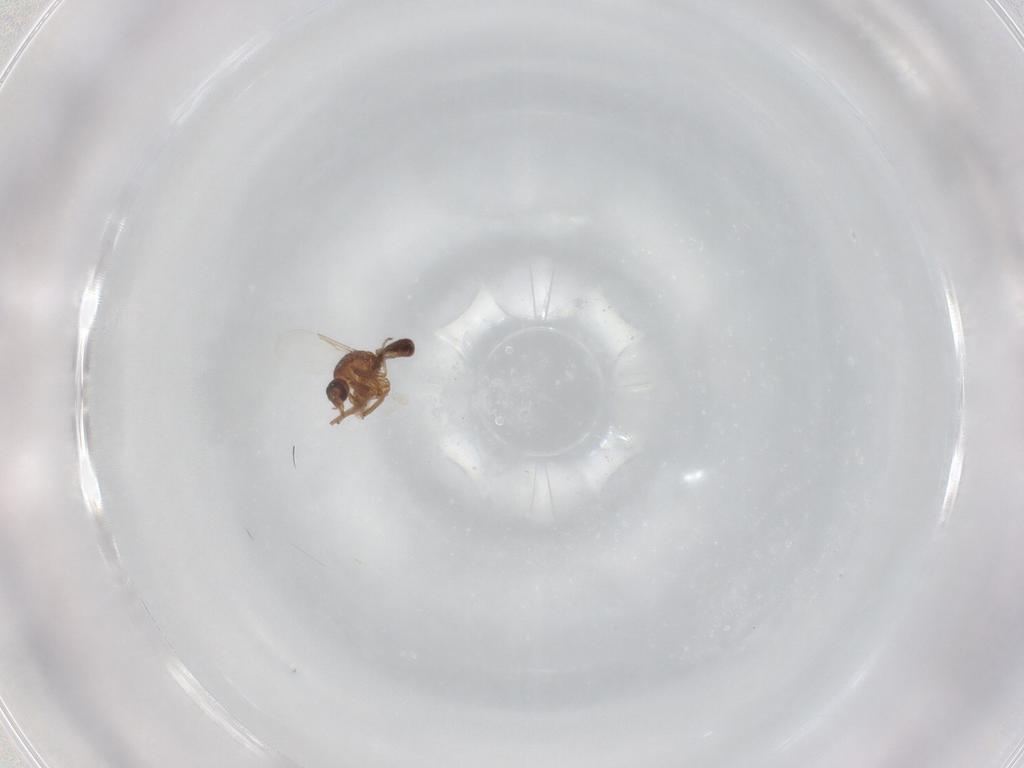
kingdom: Animalia
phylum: Arthropoda
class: Insecta
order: Diptera
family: Ceratopogonidae
